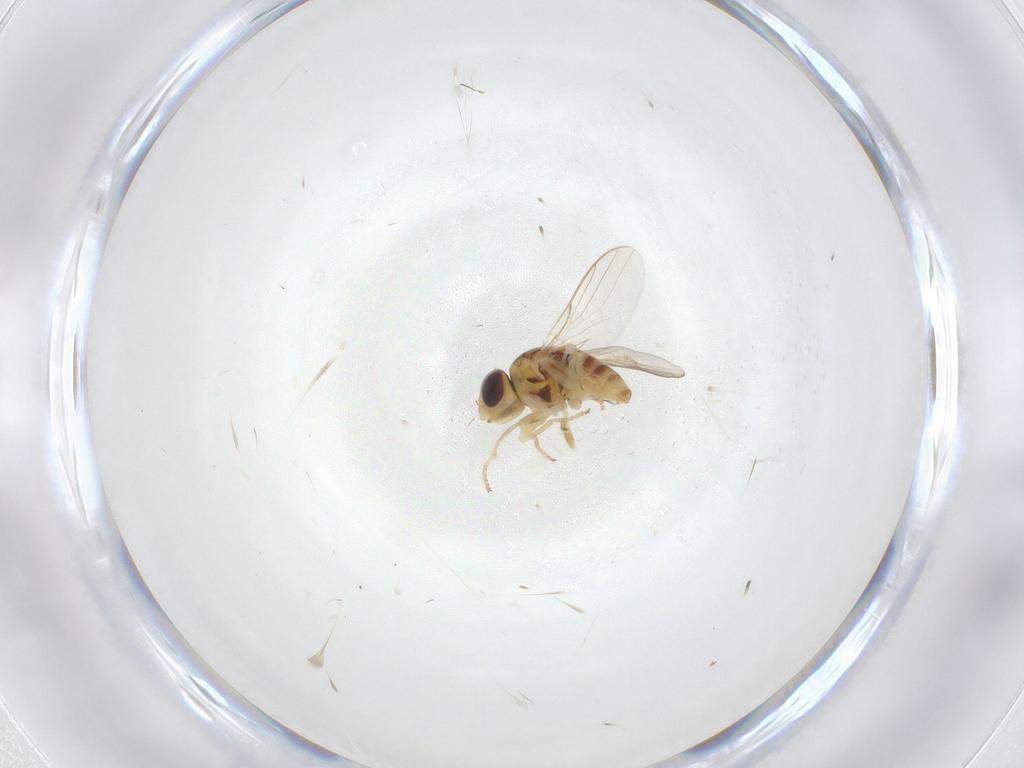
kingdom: Animalia
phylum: Arthropoda
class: Insecta
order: Diptera
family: Chloropidae
